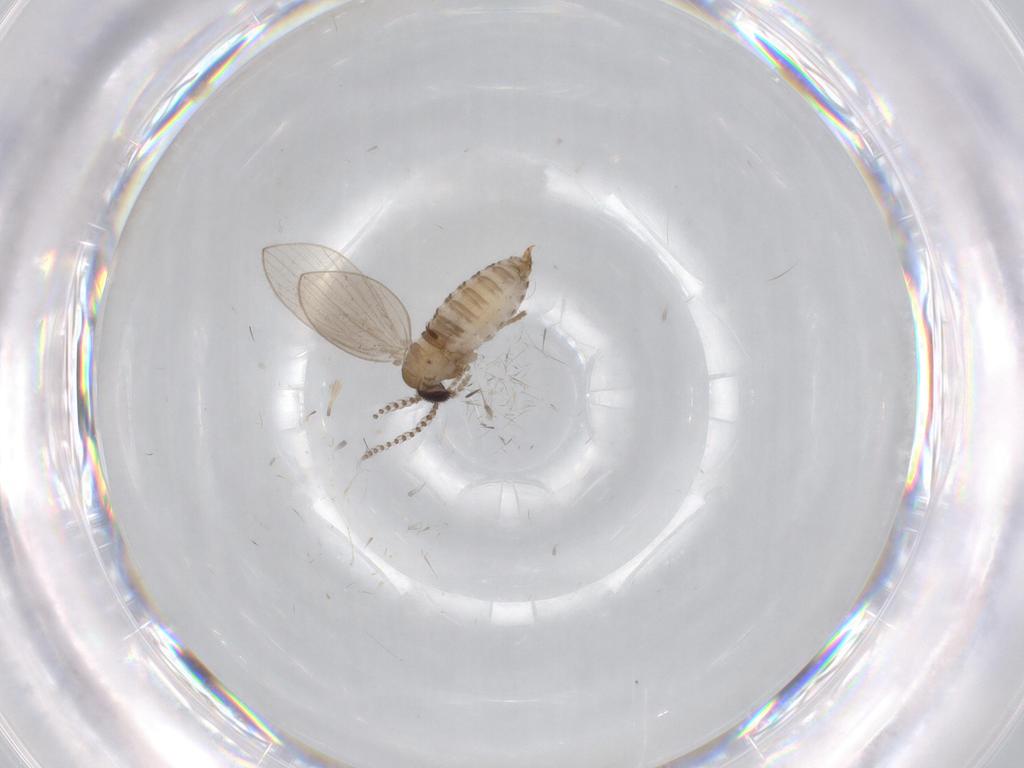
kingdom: Animalia
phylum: Arthropoda
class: Insecta
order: Diptera
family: Psychodidae
